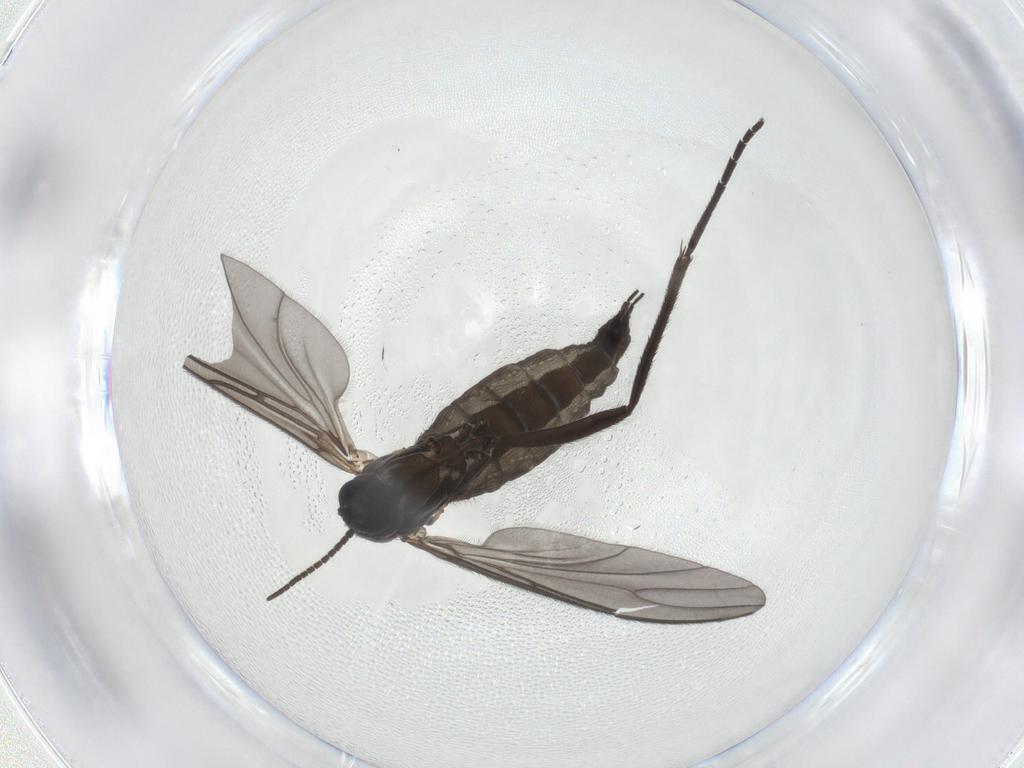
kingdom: Animalia
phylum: Arthropoda
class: Insecta
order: Diptera
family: Sciaridae
